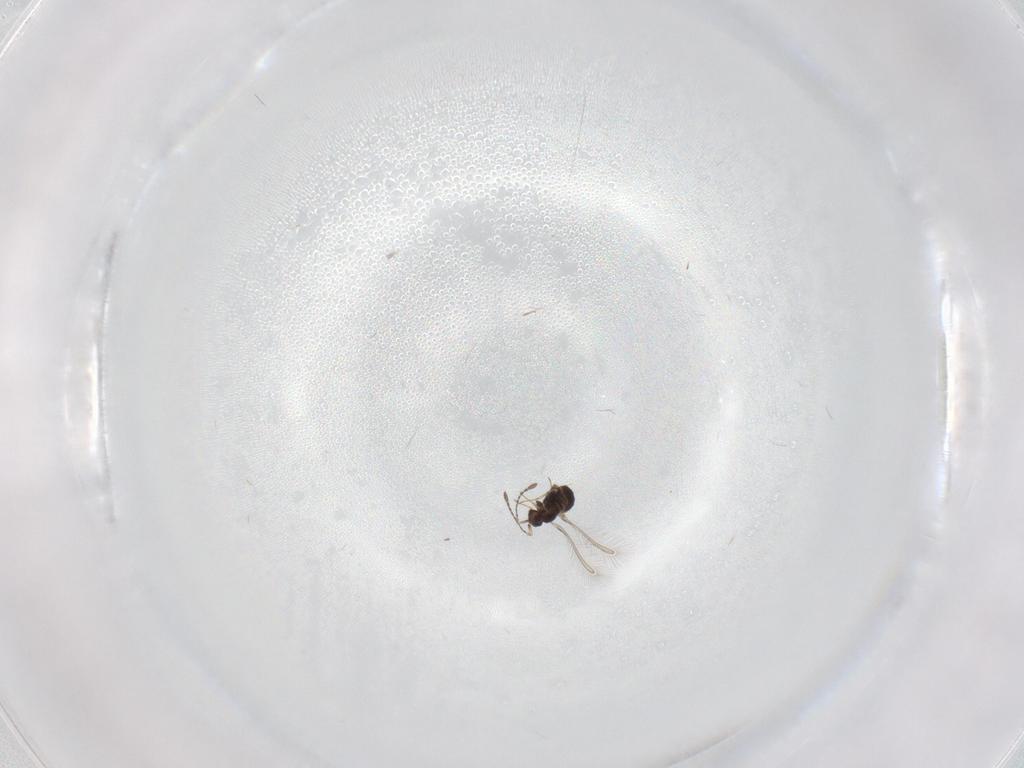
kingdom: Animalia
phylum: Arthropoda
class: Insecta
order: Hymenoptera
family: Mymaridae
